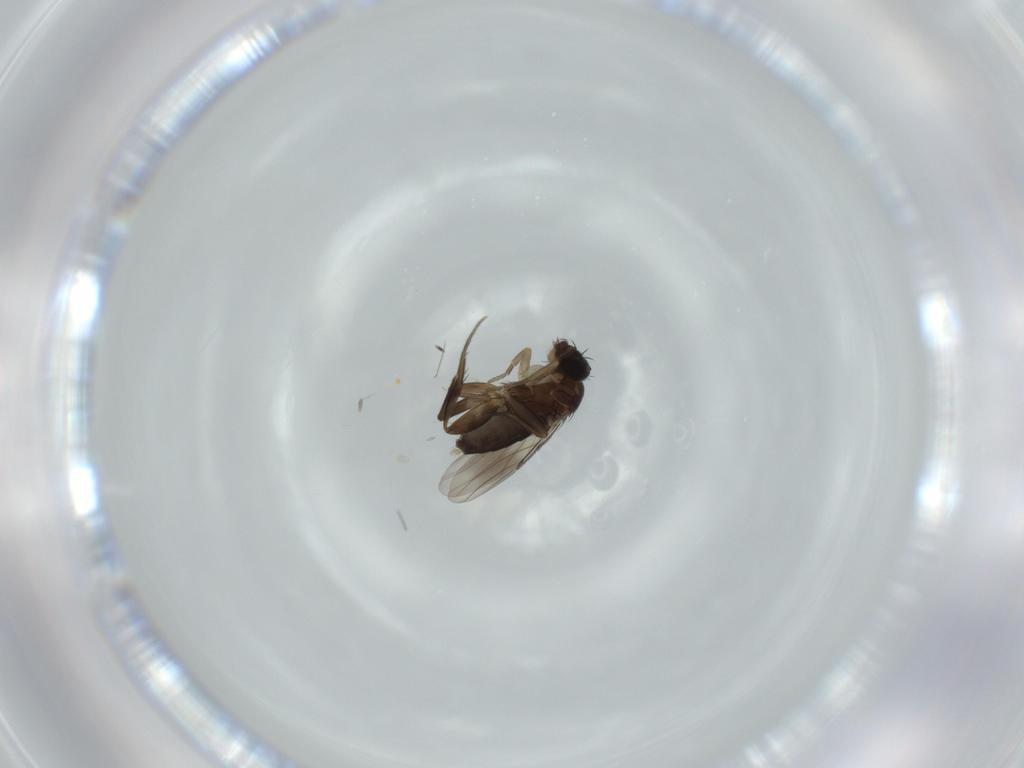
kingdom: Animalia
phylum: Arthropoda
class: Insecta
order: Diptera
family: Phoridae
